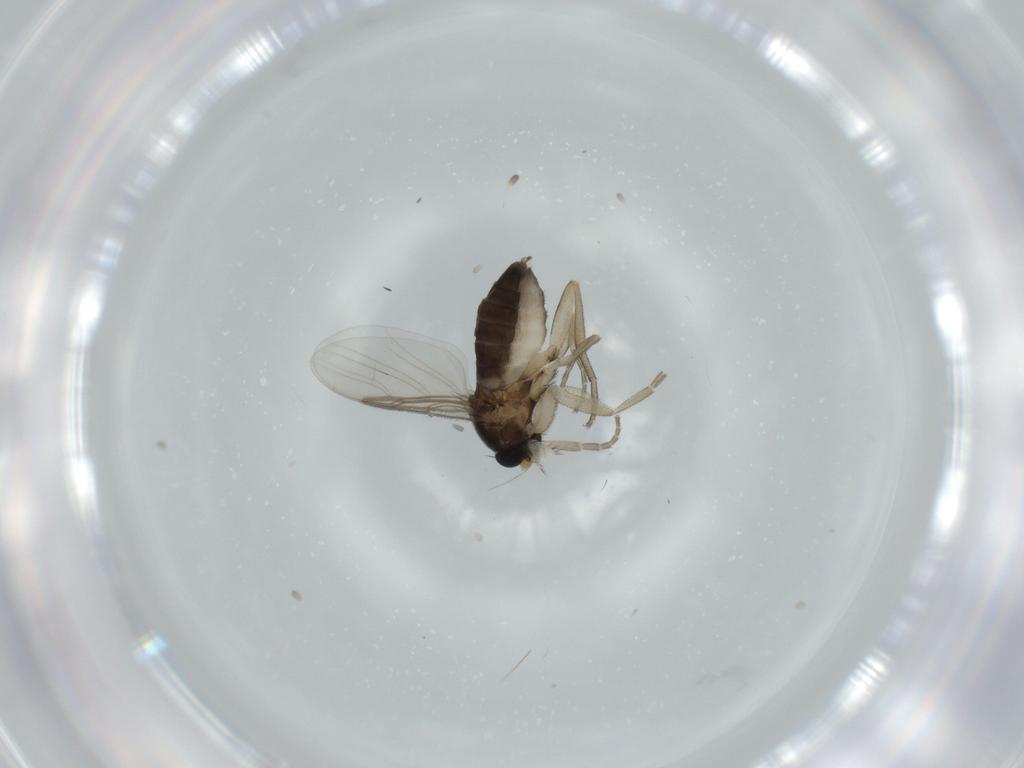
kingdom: Animalia
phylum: Arthropoda
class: Insecta
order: Diptera
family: Phoridae
